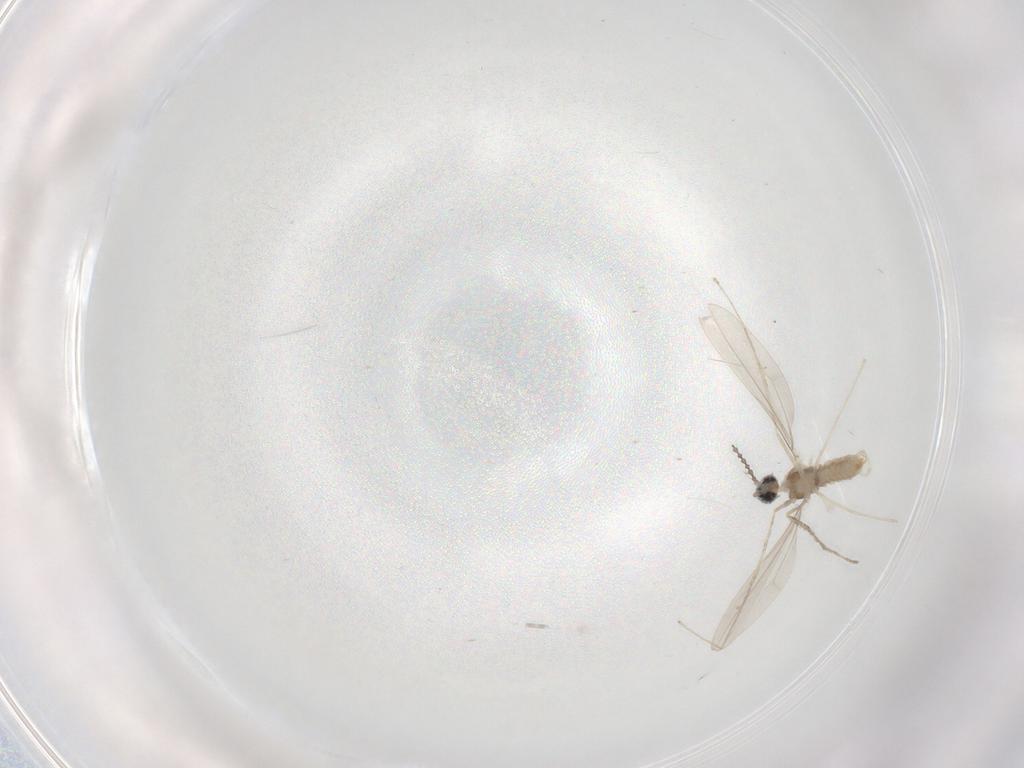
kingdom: Animalia
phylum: Arthropoda
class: Insecta
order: Diptera
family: Cecidomyiidae
